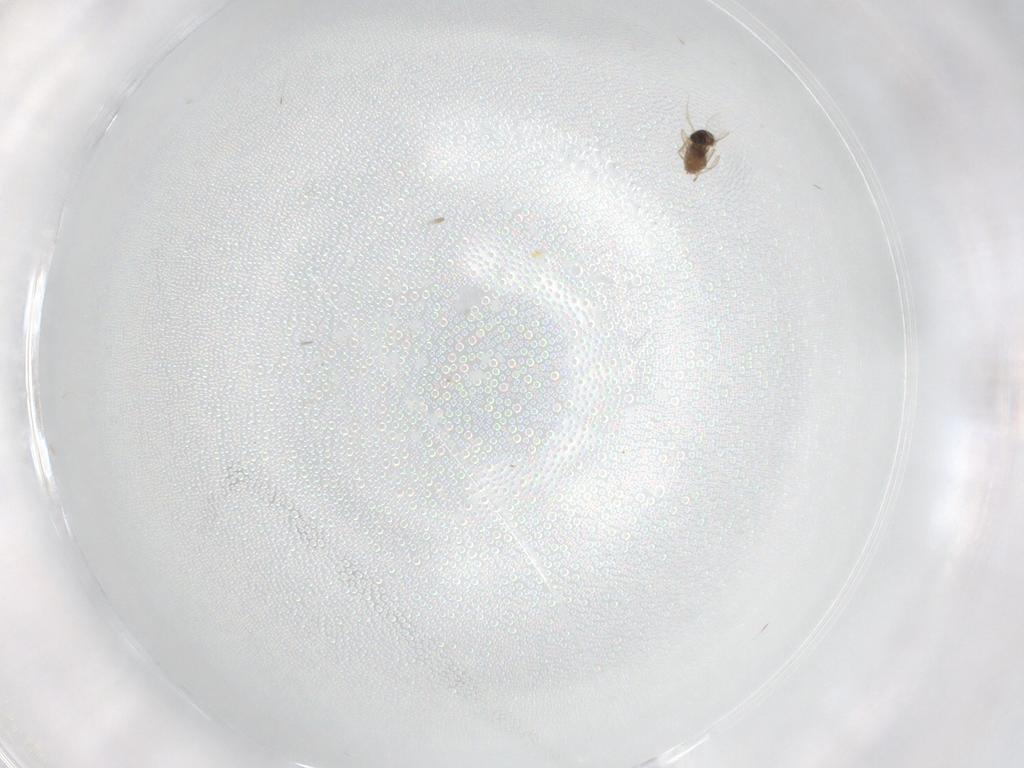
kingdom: Animalia
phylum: Arthropoda
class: Insecta
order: Diptera
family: Cecidomyiidae
